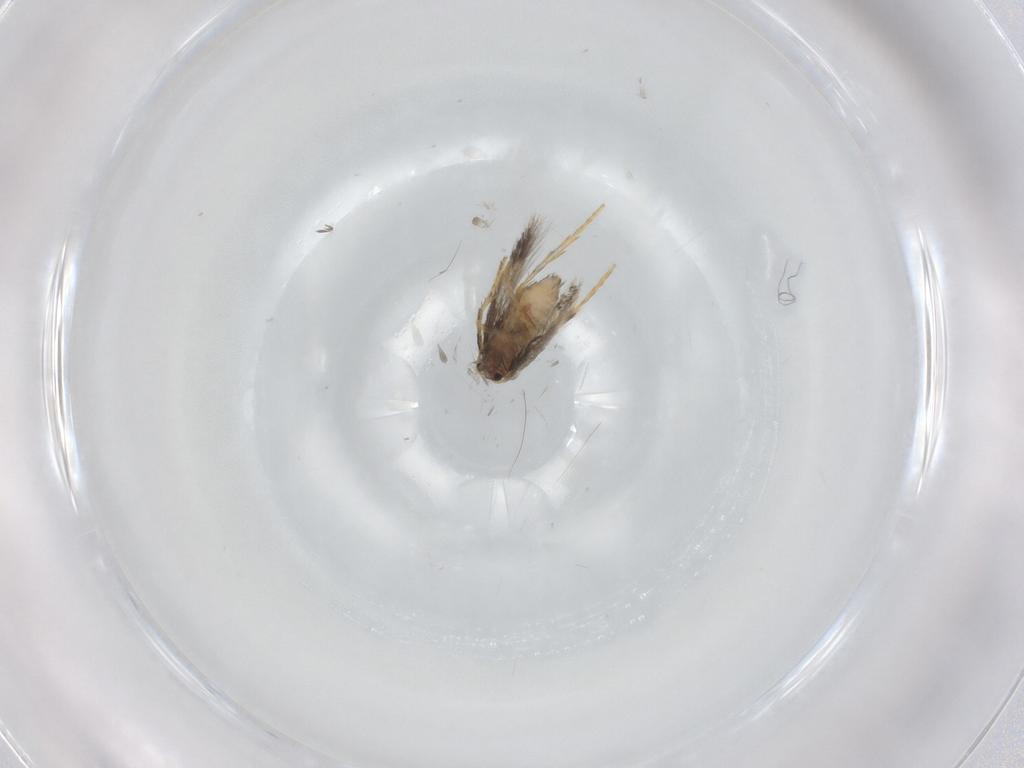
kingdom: Animalia
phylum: Arthropoda
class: Insecta
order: Lepidoptera
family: Nepticulidae
